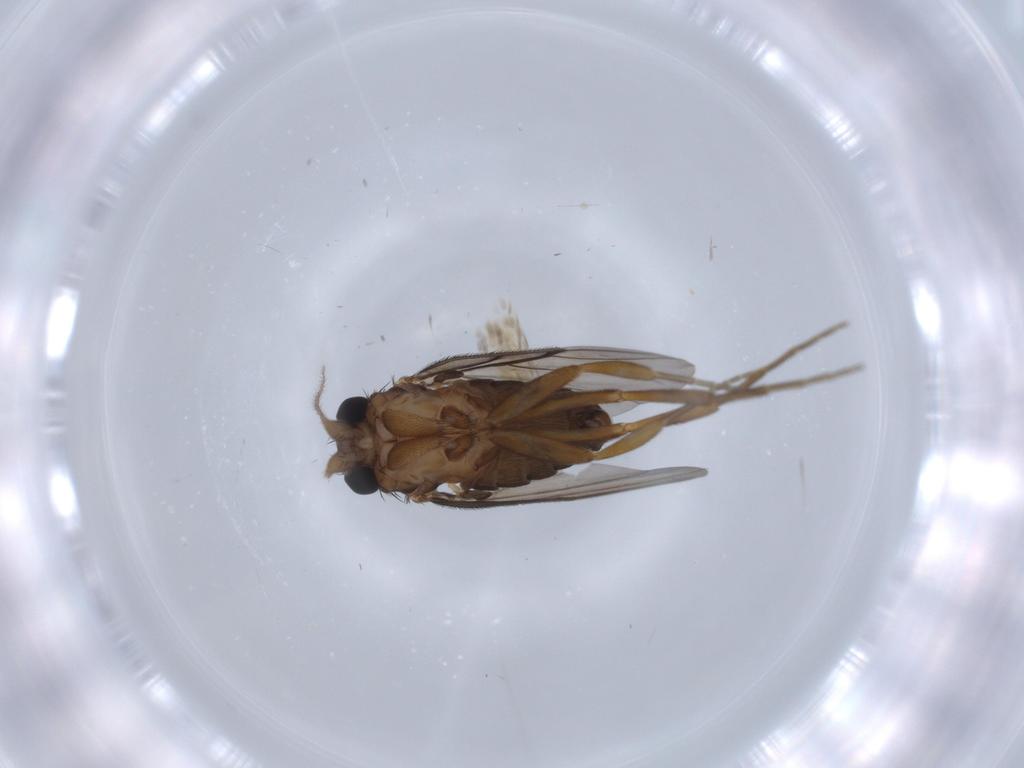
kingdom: Animalia
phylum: Arthropoda
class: Insecta
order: Diptera
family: Phoridae
